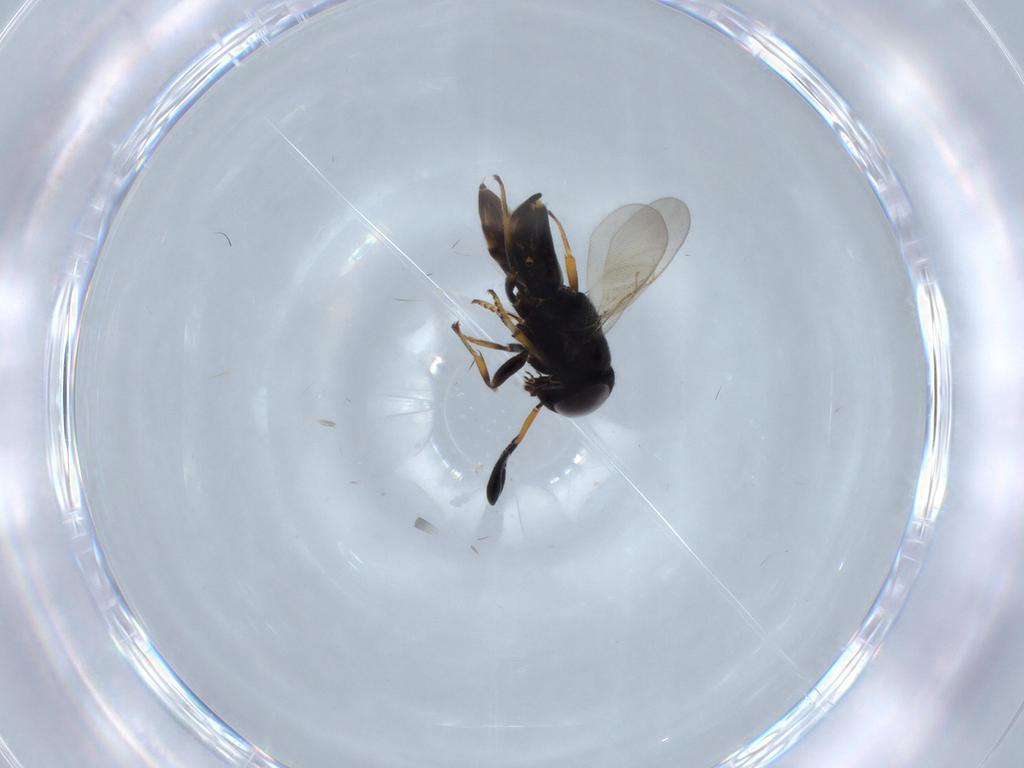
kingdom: Animalia
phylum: Arthropoda
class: Insecta
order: Hymenoptera
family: Encyrtidae
